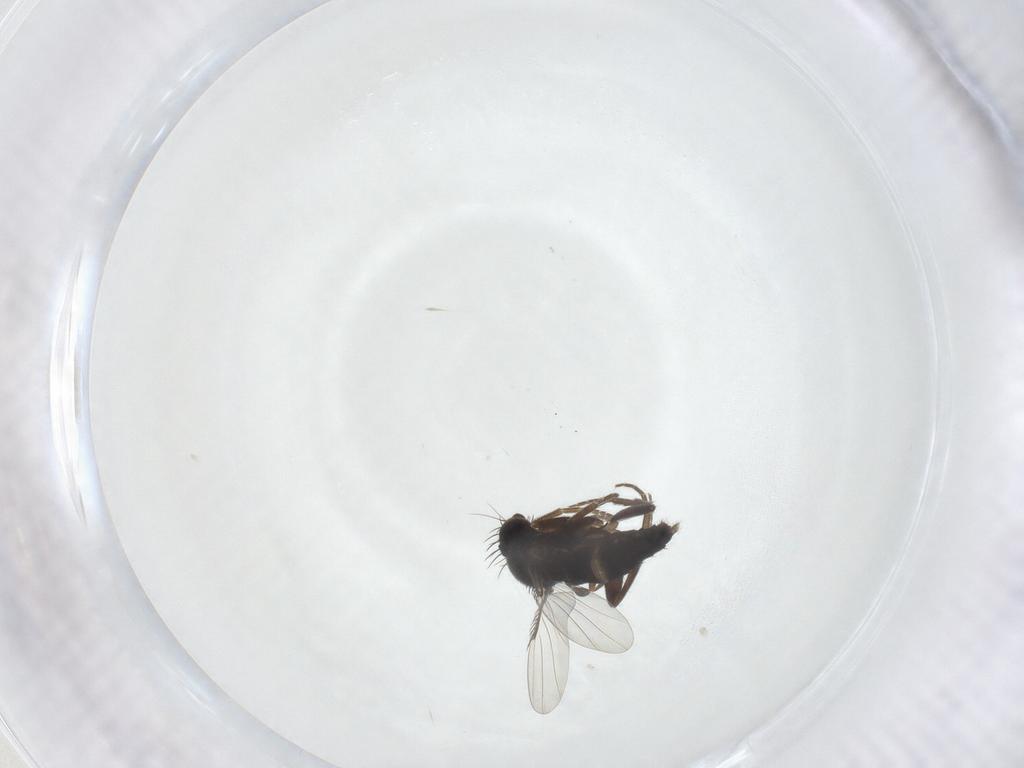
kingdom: Animalia
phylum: Arthropoda
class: Insecta
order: Diptera
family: Phoridae
